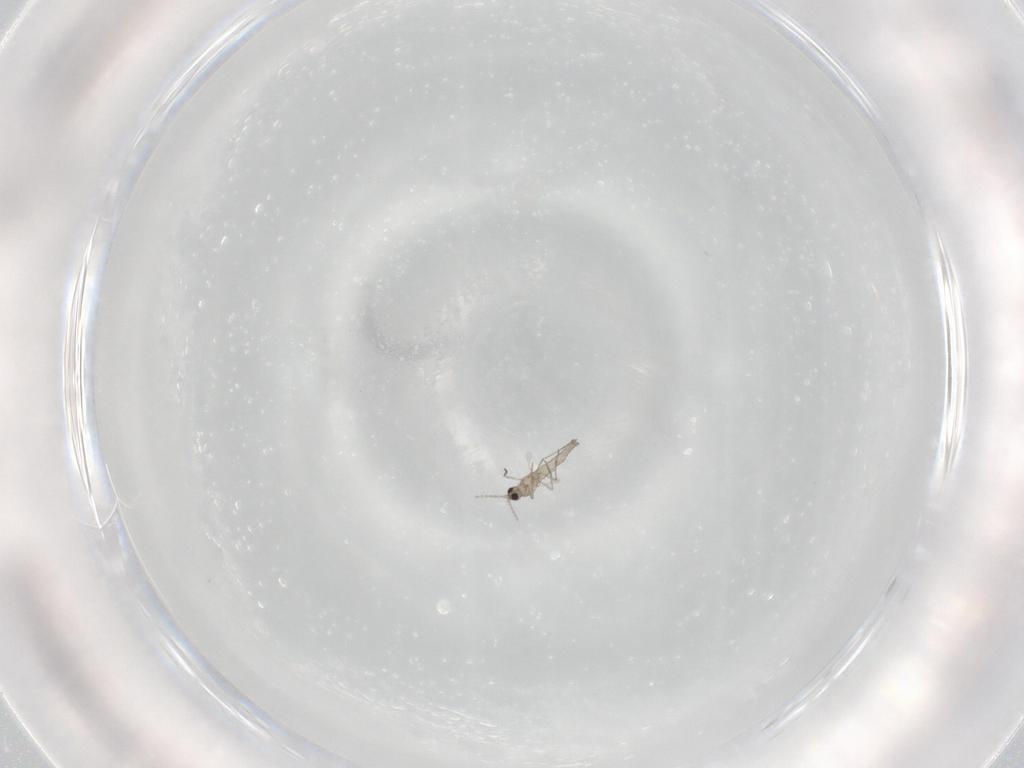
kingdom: Animalia
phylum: Arthropoda
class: Insecta
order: Diptera
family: Cecidomyiidae
